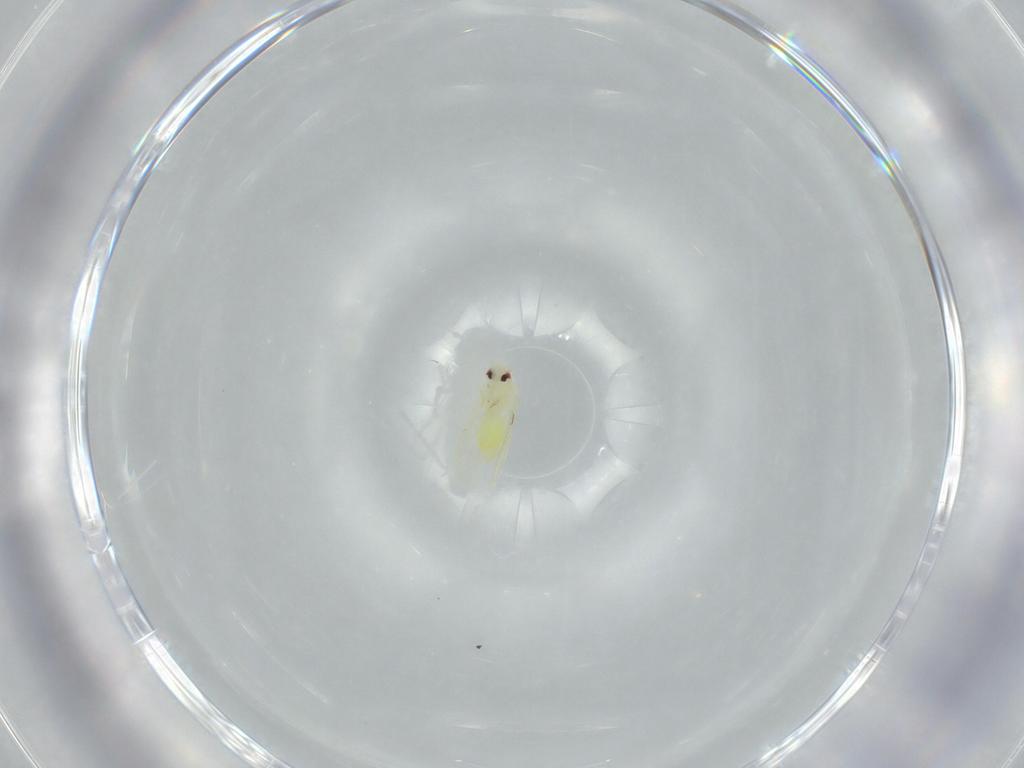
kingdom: Animalia
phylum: Arthropoda
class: Insecta
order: Hemiptera
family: Aleyrodidae
